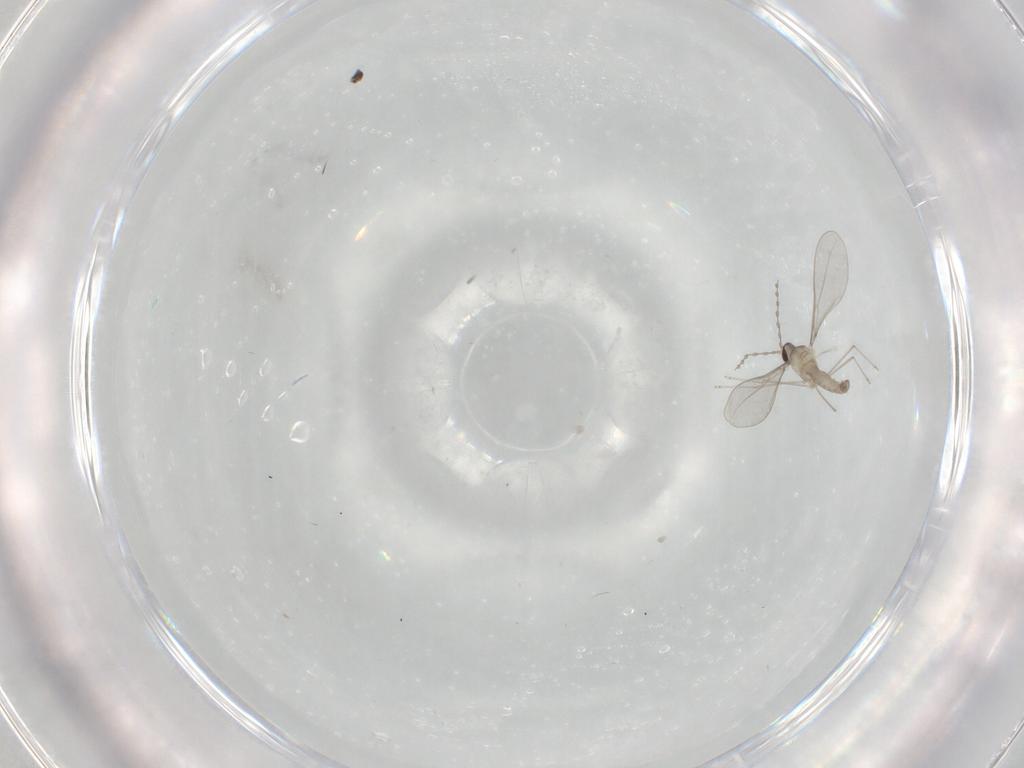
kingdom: Animalia
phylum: Arthropoda
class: Insecta
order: Diptera
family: Cecidomyiidae
